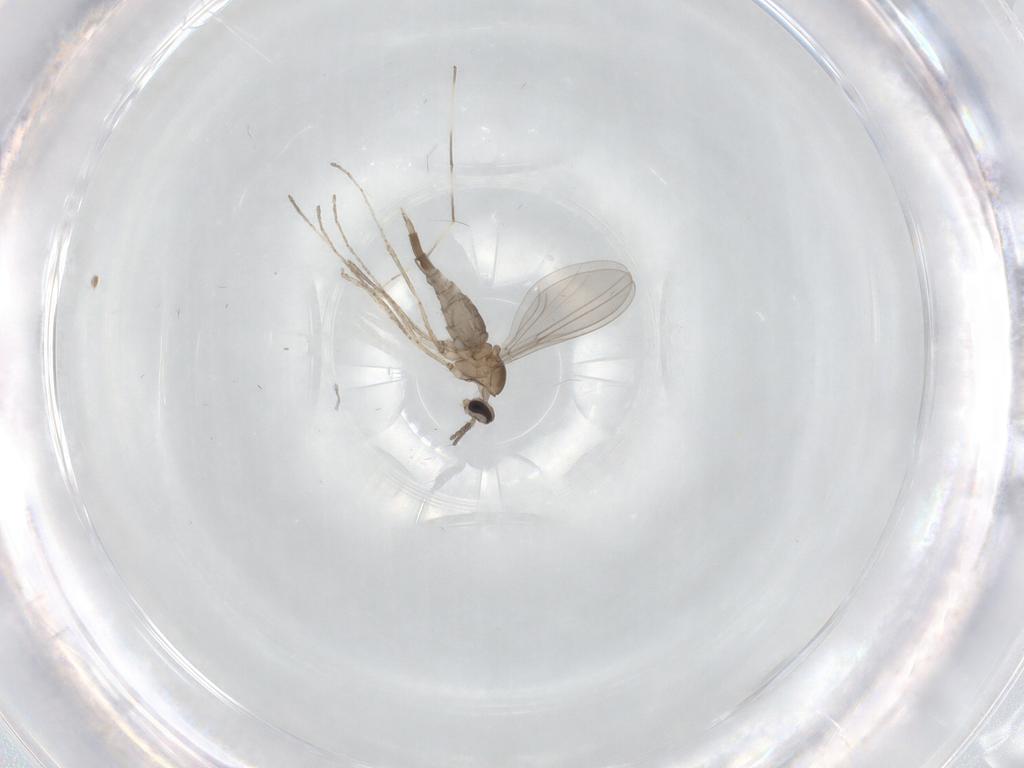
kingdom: Animalia
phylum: Arthropoda
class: Insecta
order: Diptera
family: Cecidomyiidae
